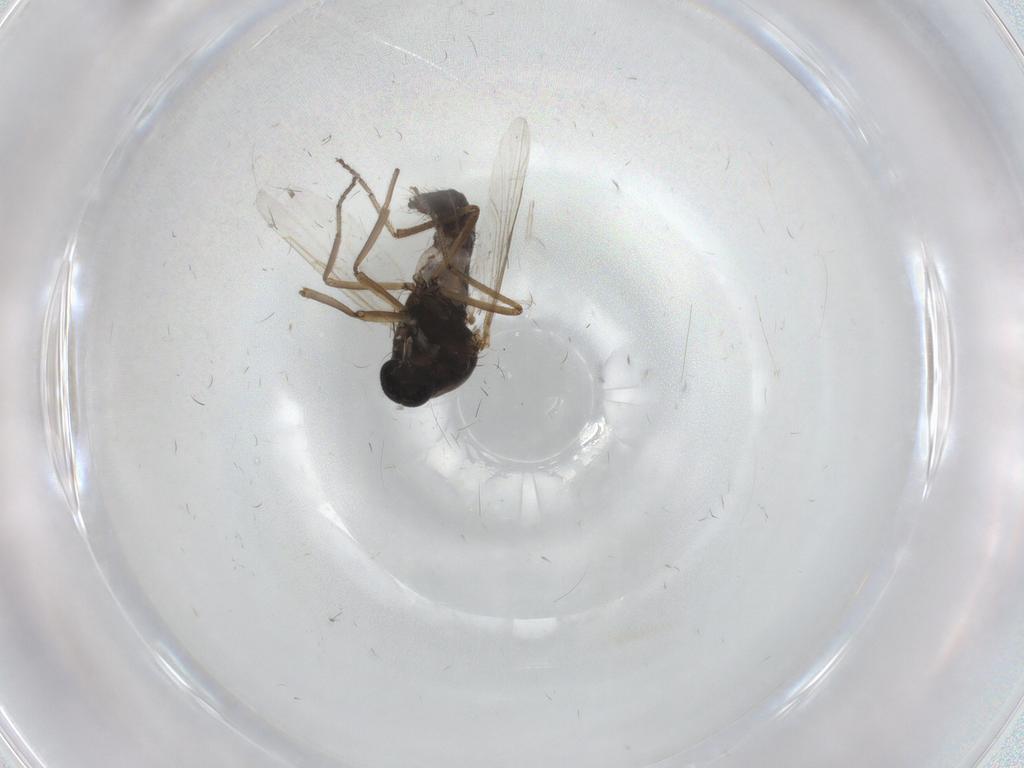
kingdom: Animalia
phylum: Arthropoda
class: Insecta
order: Diptera
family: Ceratopogonidae
